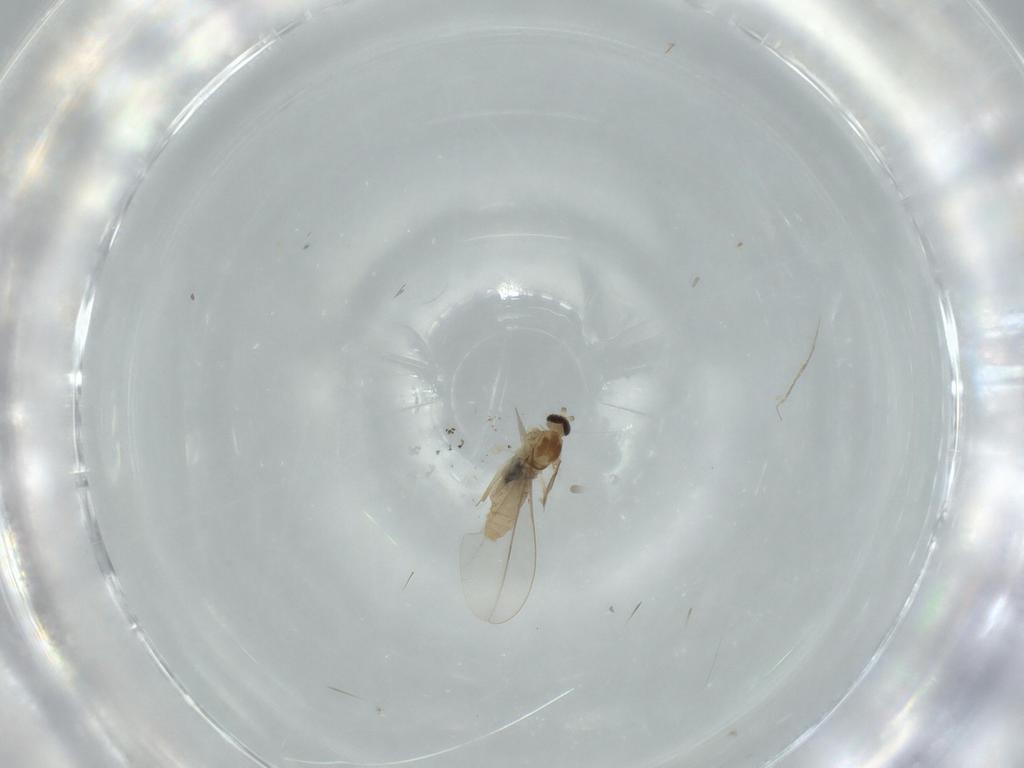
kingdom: Animalia
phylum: Arthropoda
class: Insecta
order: Diptera
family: Cecidomyiidae
